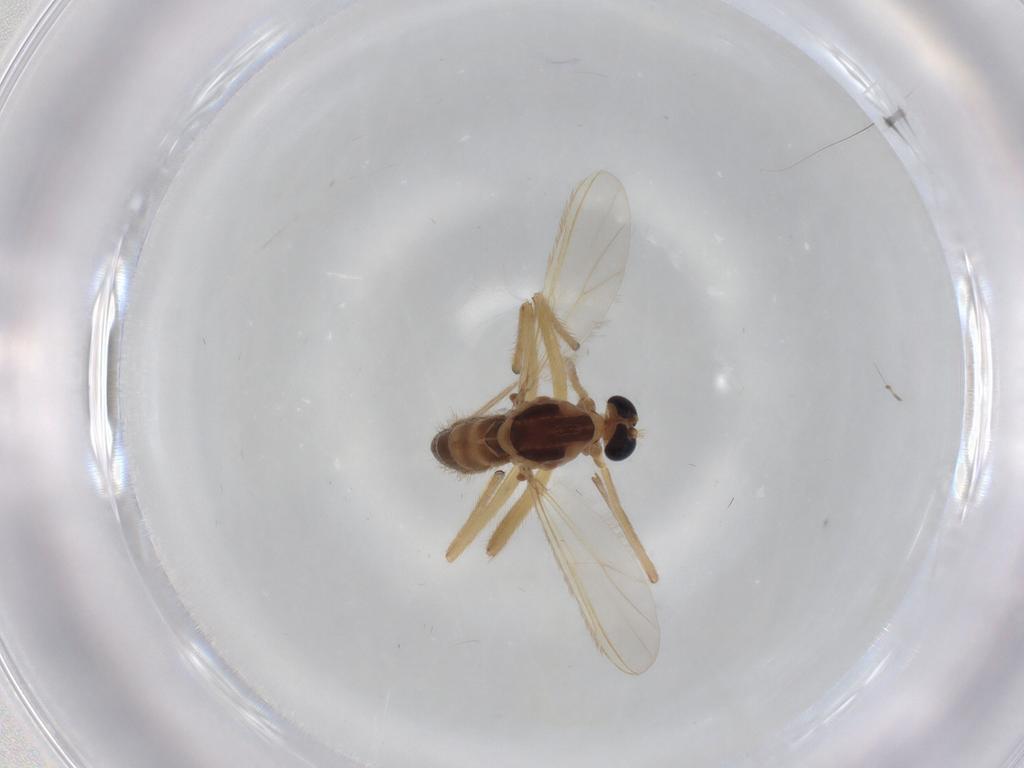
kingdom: Animalia
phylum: Arthropoda
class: Insecta
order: Diptera
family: Chironomidae
